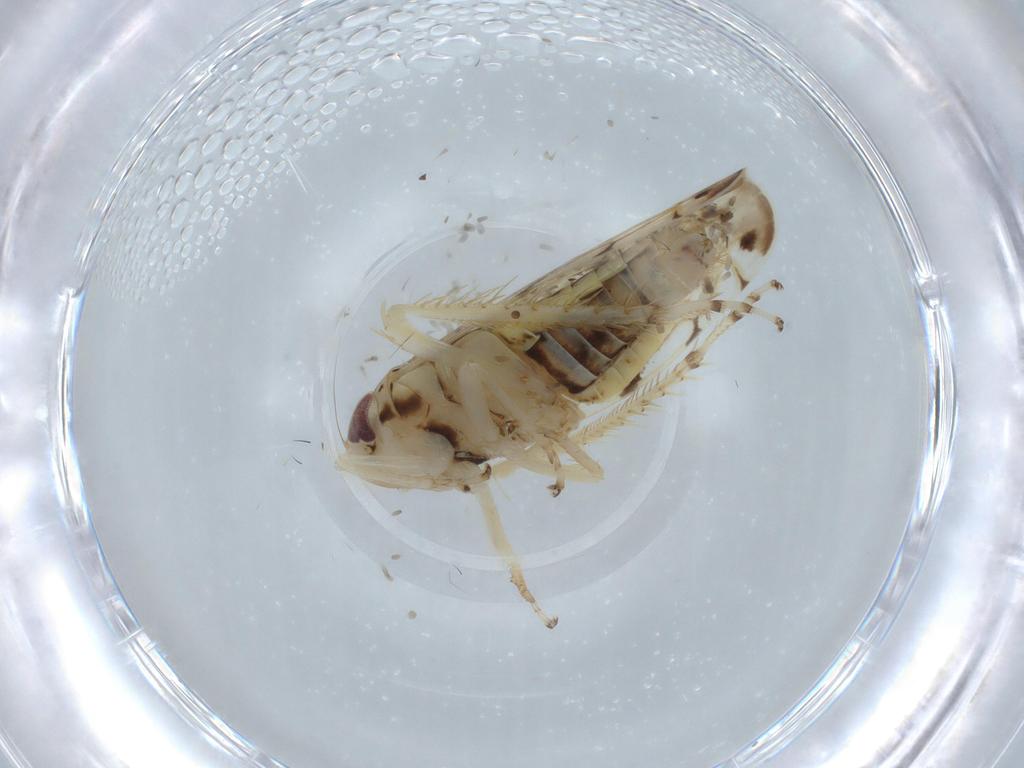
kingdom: Animalia
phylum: Arthropoda
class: Insecta
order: Hemiptera
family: Cicadellidae
